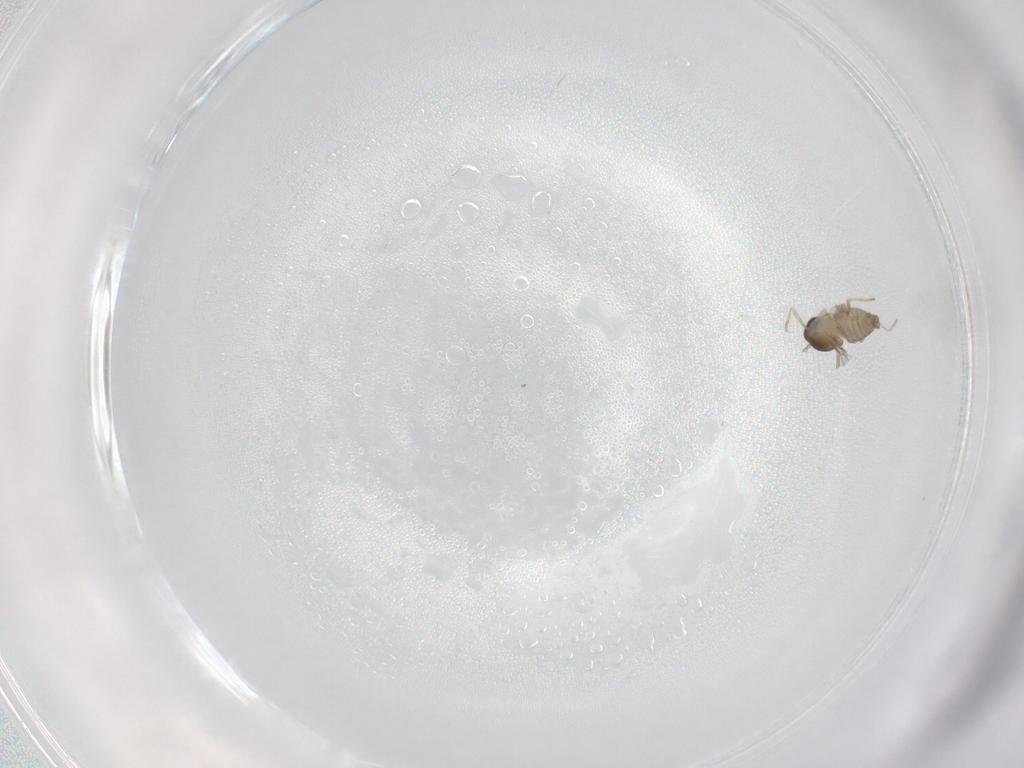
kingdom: Animalia
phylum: Arthropoda
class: Insecta
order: Diptera
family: Cecidomyiidae
